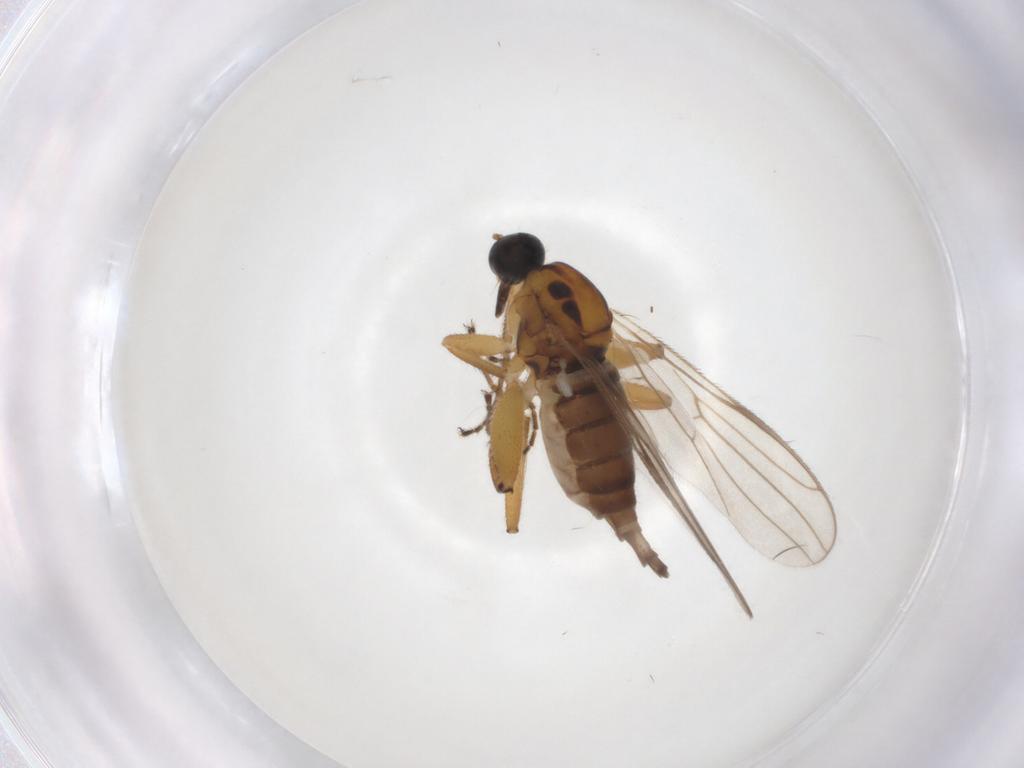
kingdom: Animalia
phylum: Arthropoda
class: Insecta
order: Diptera
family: Hybotidae
